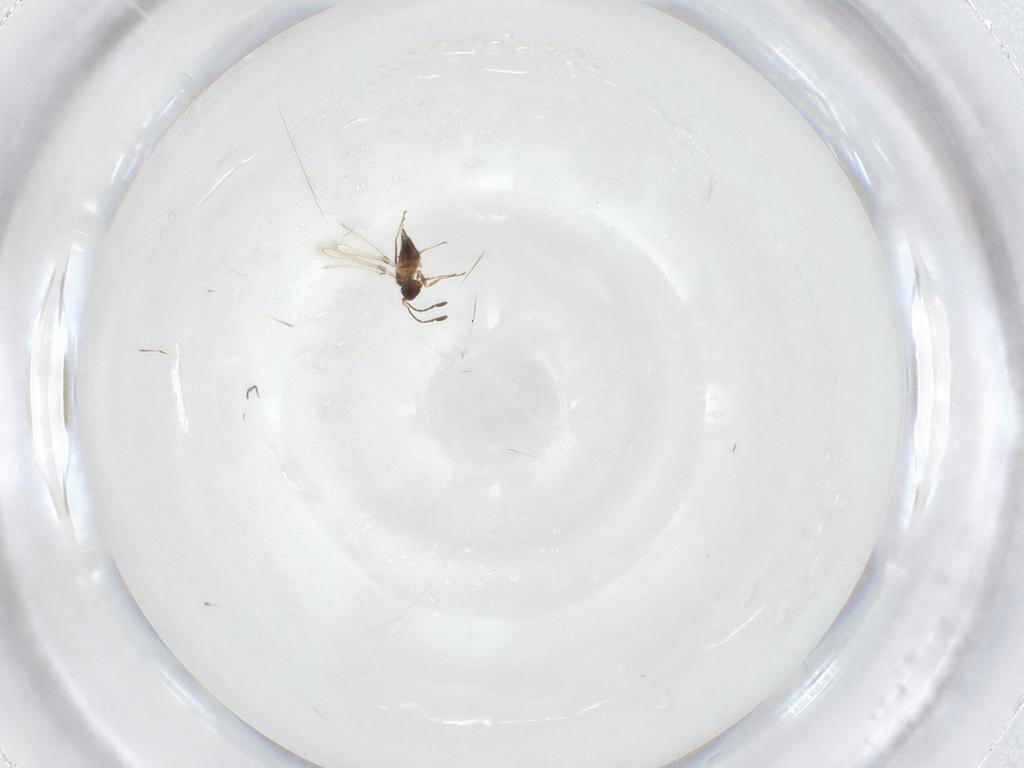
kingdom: Animalia
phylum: Arthropoda
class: Insecta
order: Hymenoptera
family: Mymaridae
